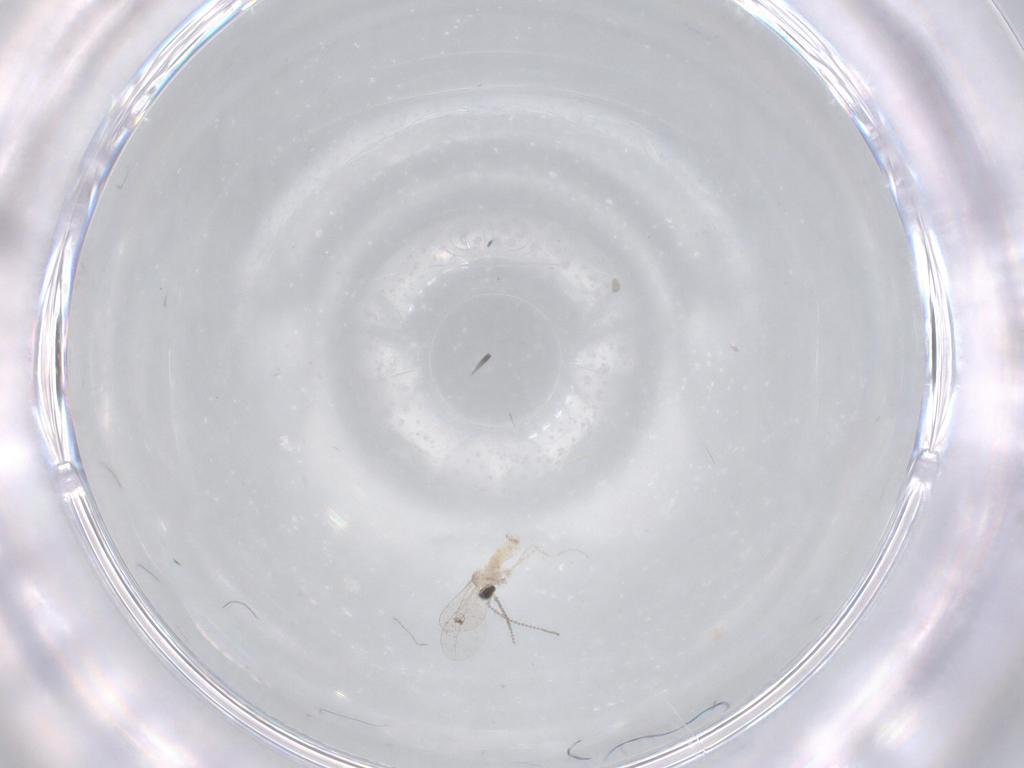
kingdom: Animalia
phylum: Arthropoda
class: Insecta
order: Diptera
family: Cecidomyiidae
